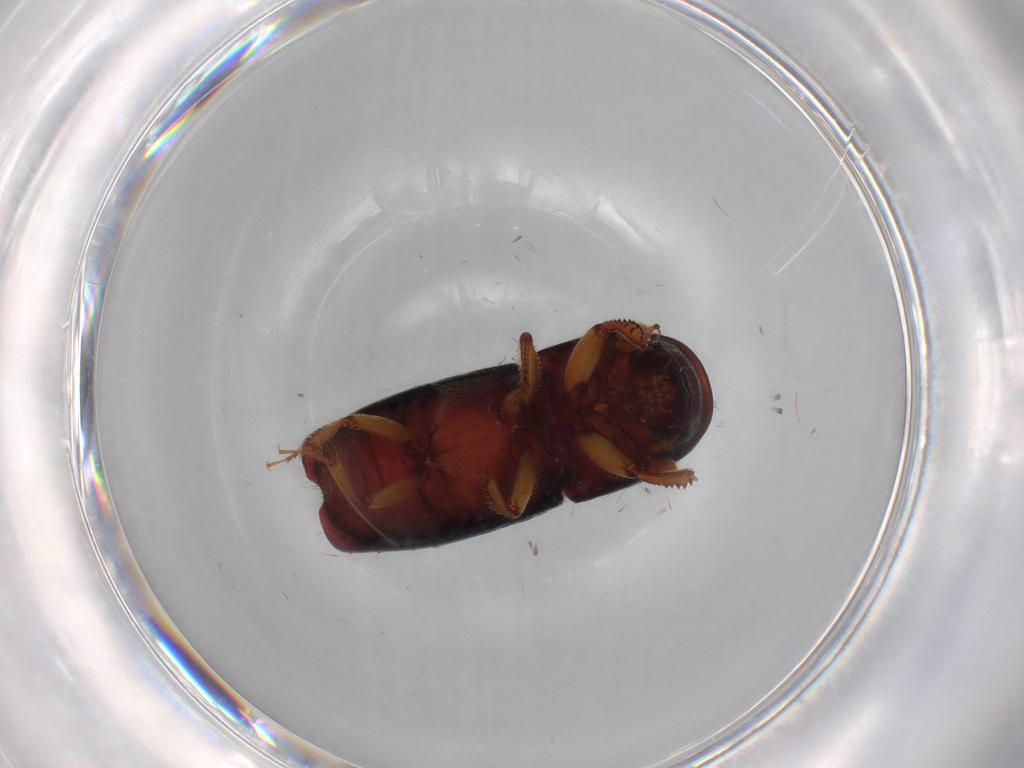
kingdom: Animalia
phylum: Arthropoda
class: Insecta
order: Coleoptera
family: Curculionidae
